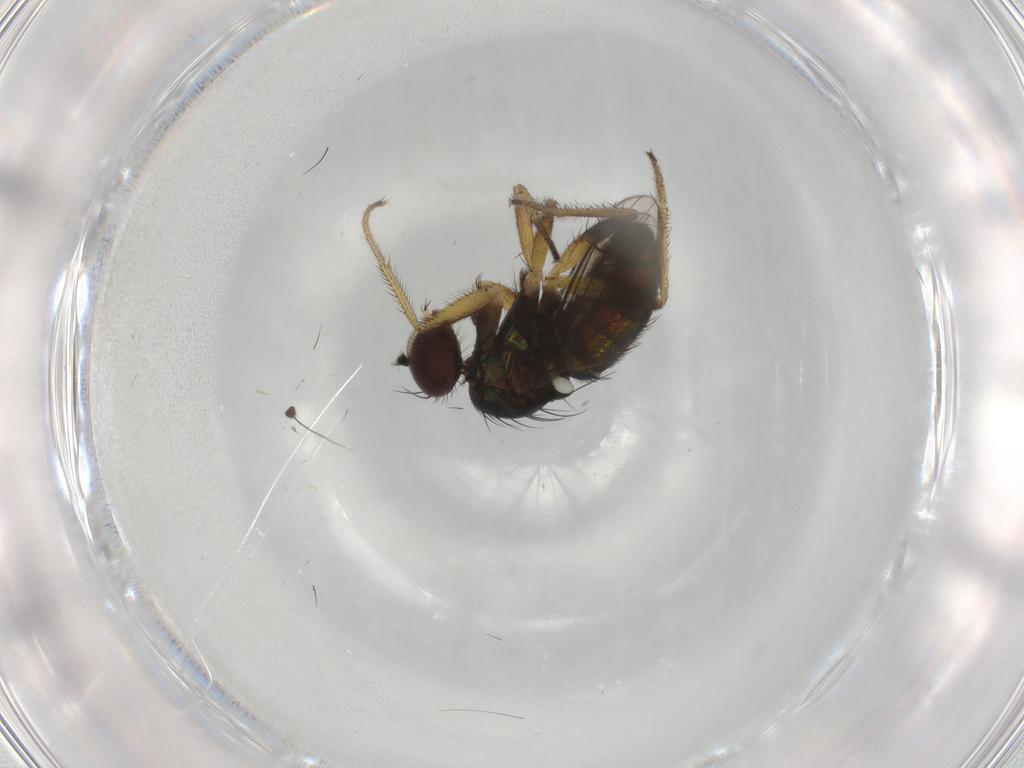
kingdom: Animalia
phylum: Arthropoda
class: Insecta
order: Diptera
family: Dolichopodidae
